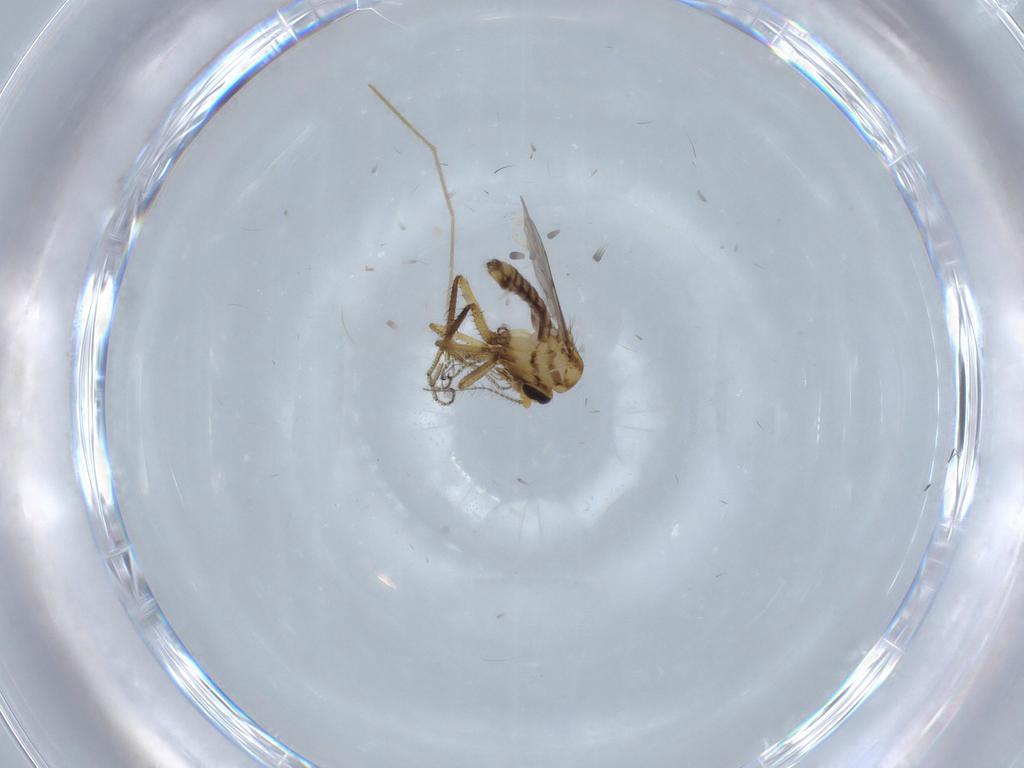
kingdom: Animalia
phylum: Arthropoda
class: Insecta
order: Diptera
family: Ceratopogonidae
